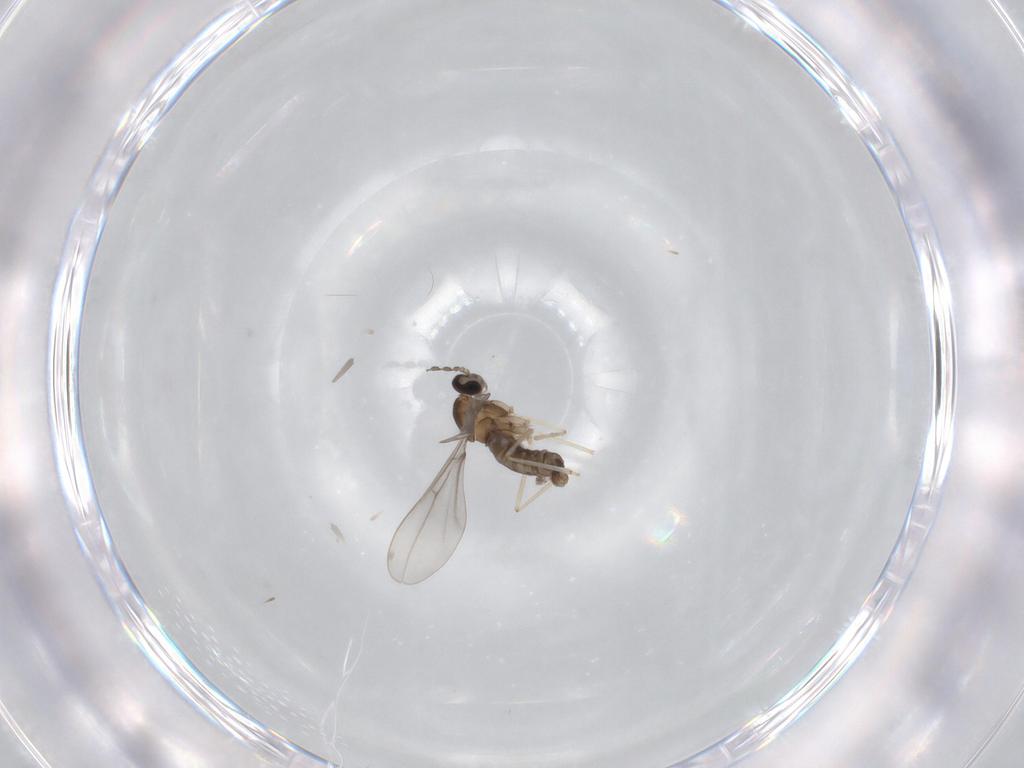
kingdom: Animalia
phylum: Arthropoda
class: Insecta
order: Diptera
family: Cecidomyiidae
